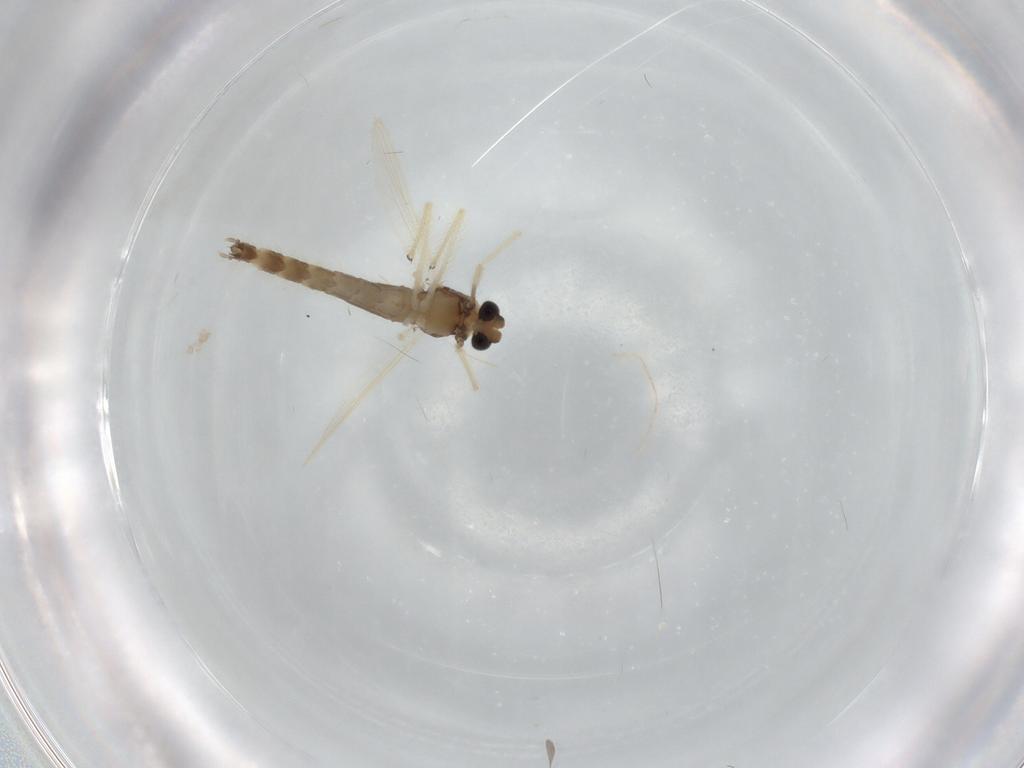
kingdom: Animalia
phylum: Arthropoda
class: Insecta
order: Diptera
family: Chironomidae
